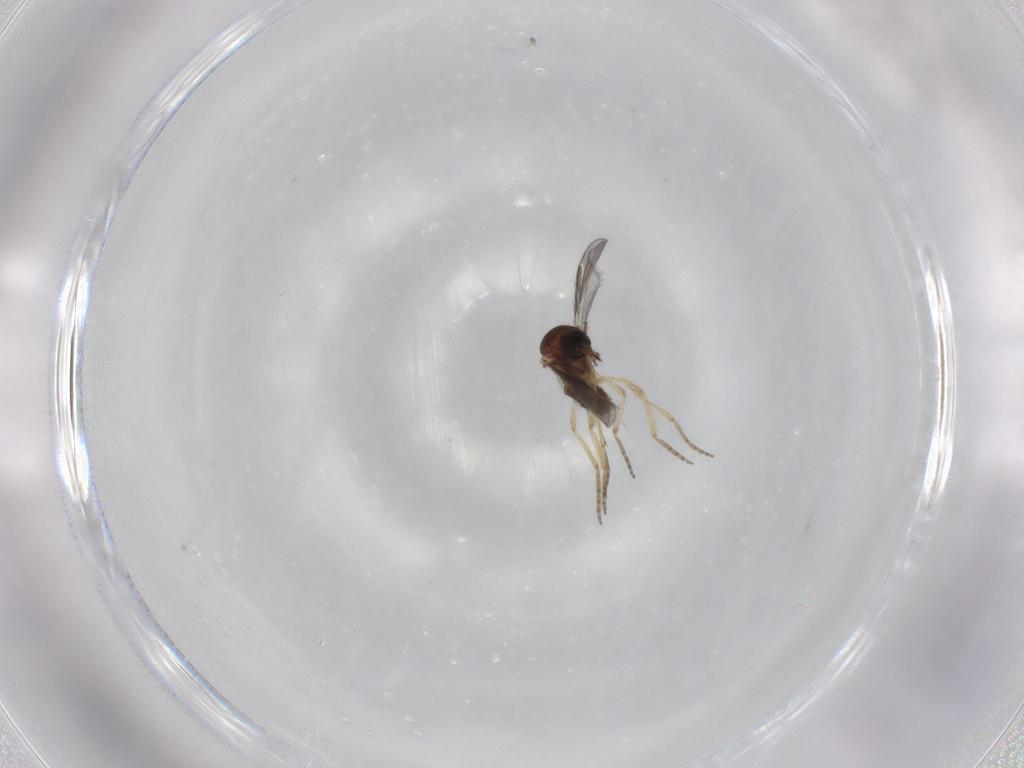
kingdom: Animalia
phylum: Arthropoda
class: Insecta
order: Diptera
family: Ceratopogonidae
